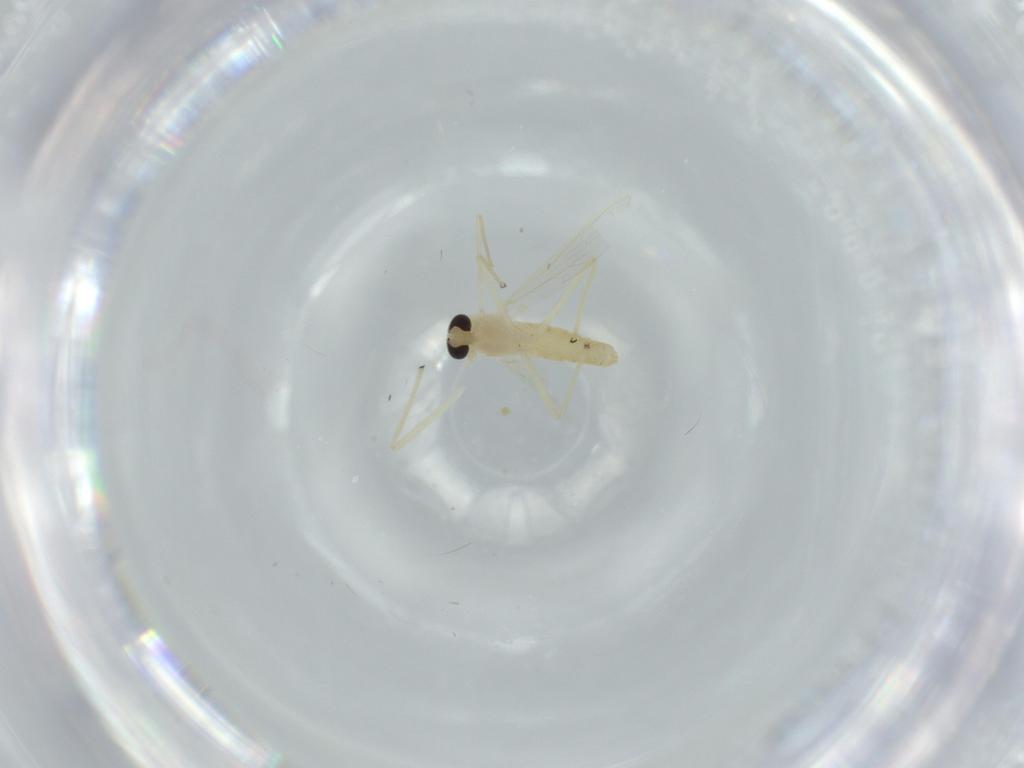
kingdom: Animalia
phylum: Arthropoda
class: Insecta
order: Diptera
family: Chironomidae
